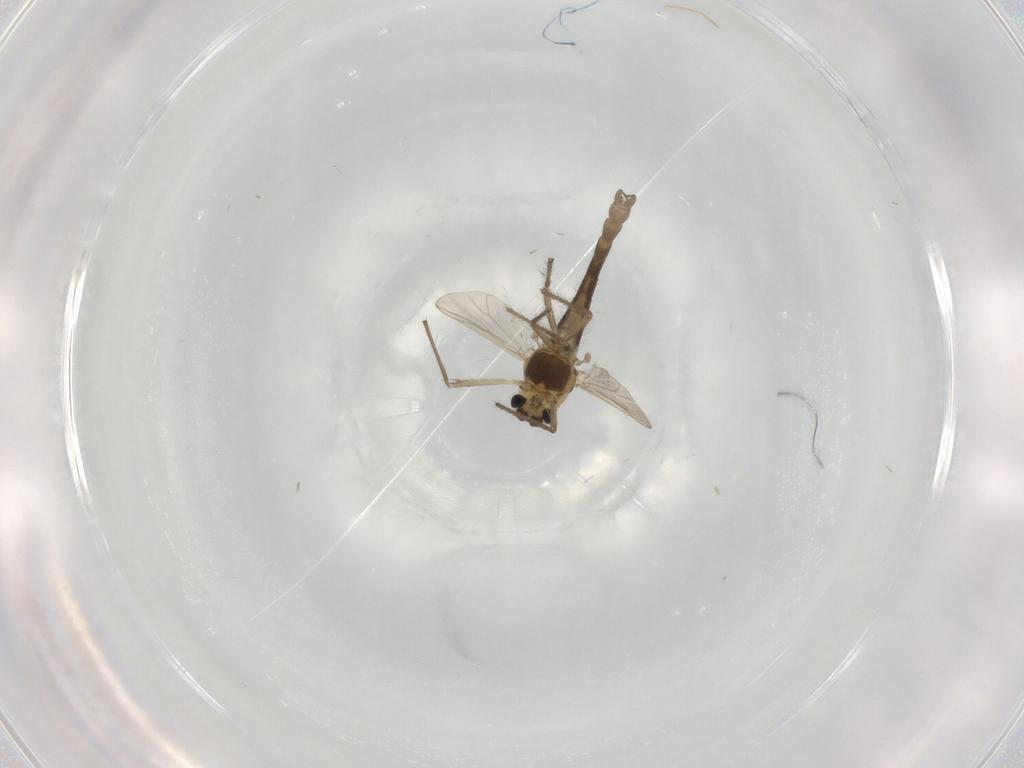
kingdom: Animalia
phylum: Arthropoda
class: Insecta
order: Diptera
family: Chironomidae
